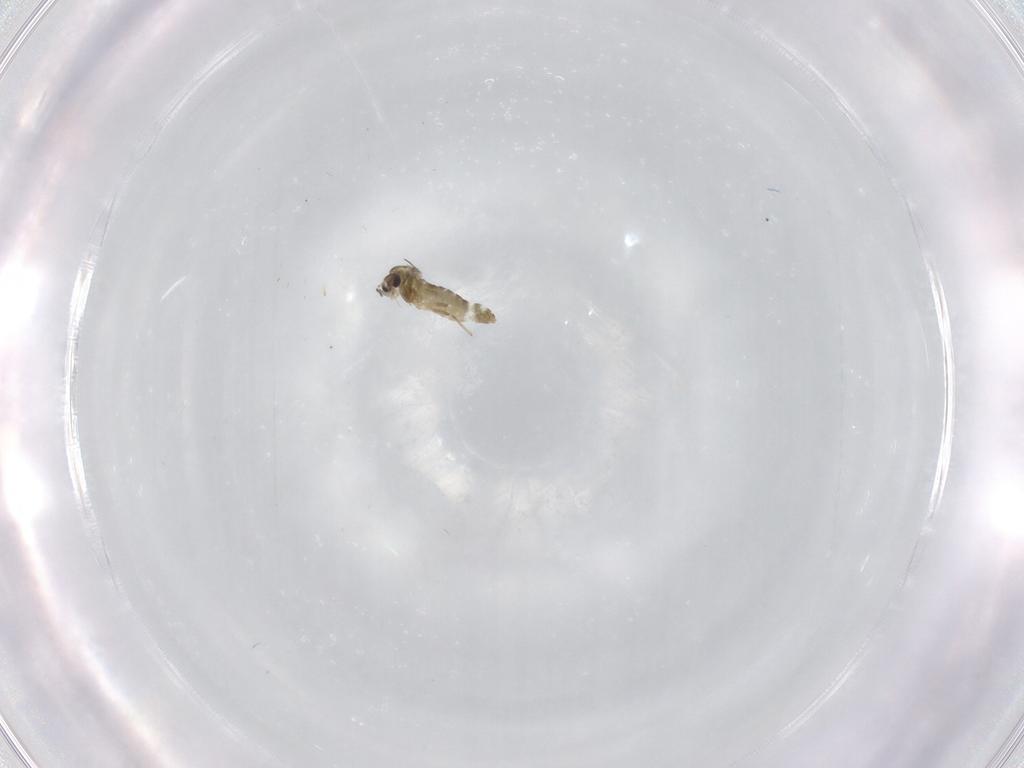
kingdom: Animalia
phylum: Arthropoda
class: Insecta
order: Diptera
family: Chironomidae
